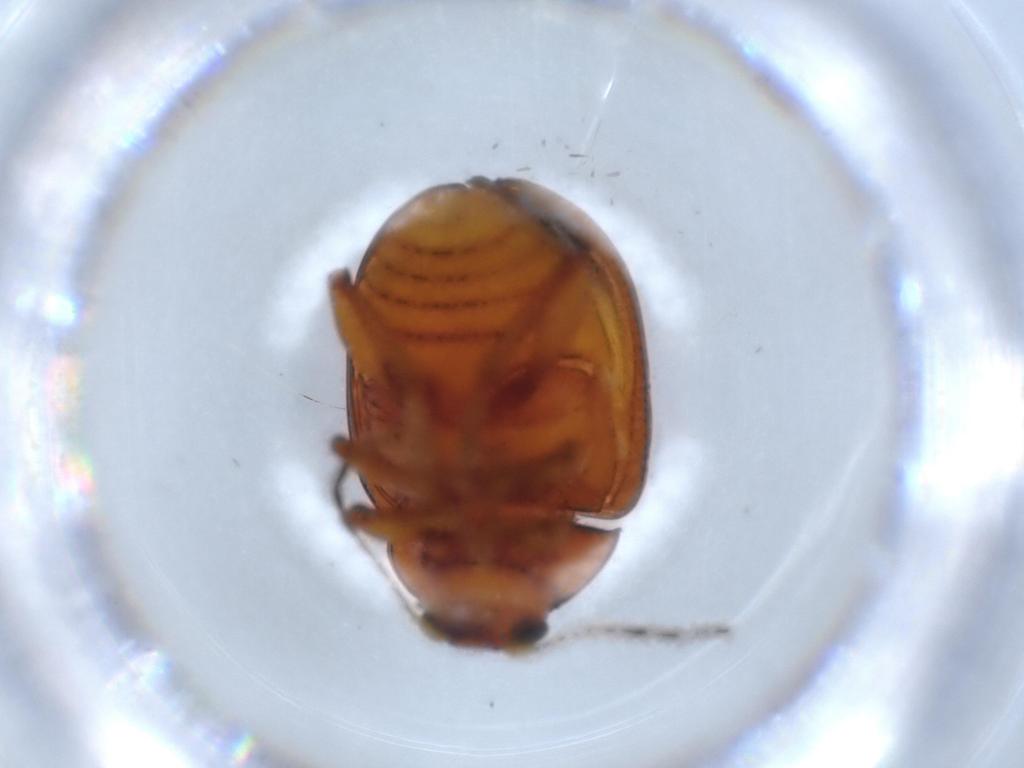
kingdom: Animalia
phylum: Arthropoda
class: Insecta
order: Coleoptera
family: Chrysomelidae
